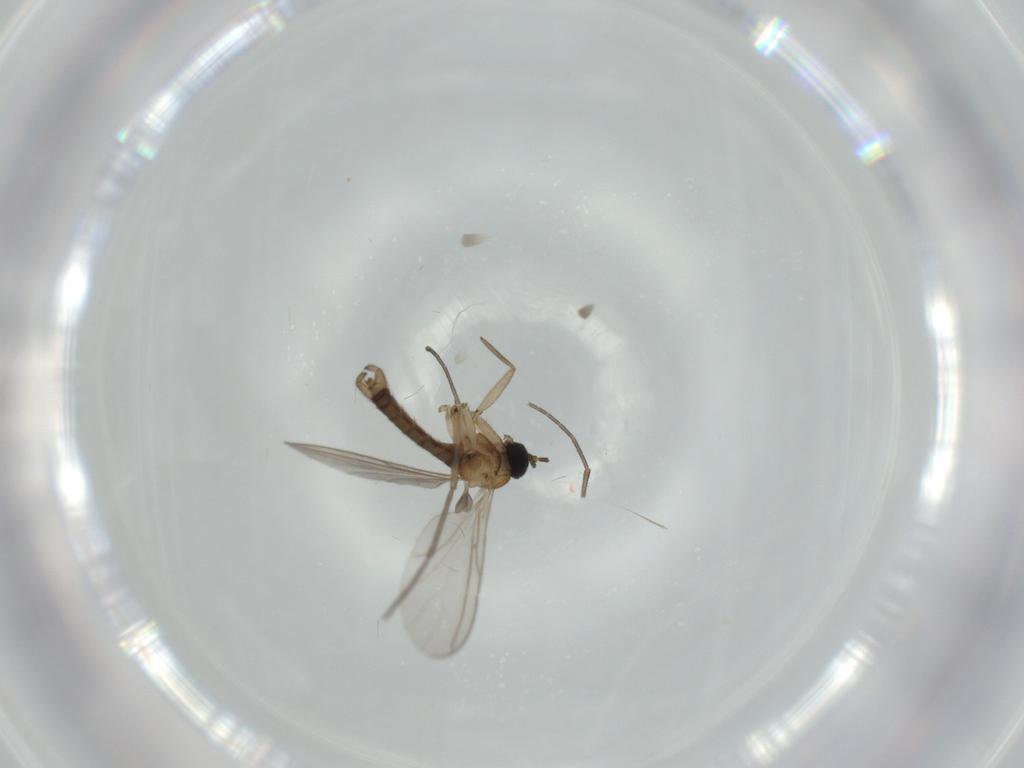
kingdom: Animalia
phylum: Arthropoda
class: Insecta
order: Diptera
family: Sciaridae
